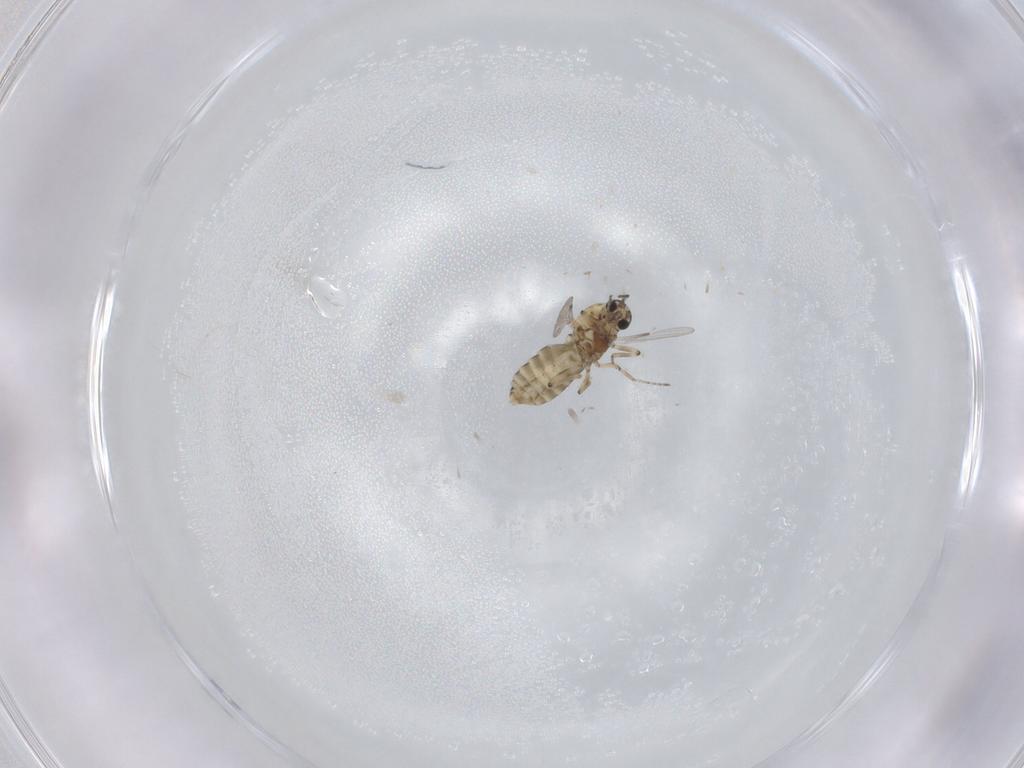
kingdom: Animalia
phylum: Arthropoda
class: Insecta
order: Diptera
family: Ceratopogonidae
